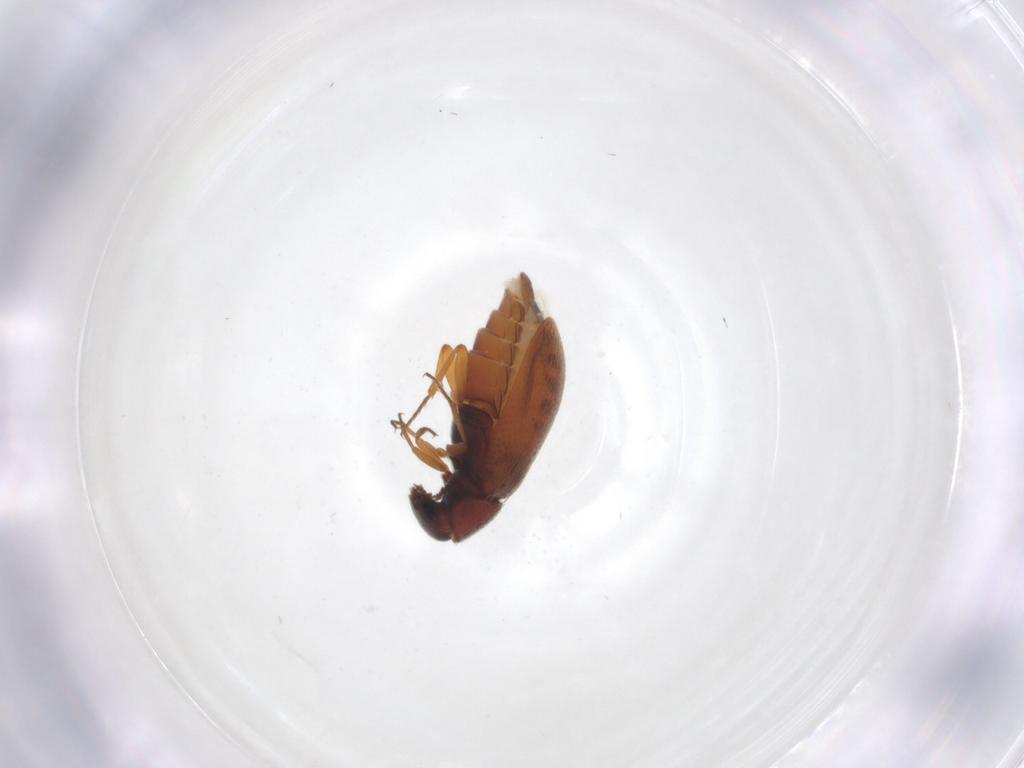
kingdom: Animalia
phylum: Arthropoda
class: Insecta
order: Coleoptera
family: Rhadalidae
